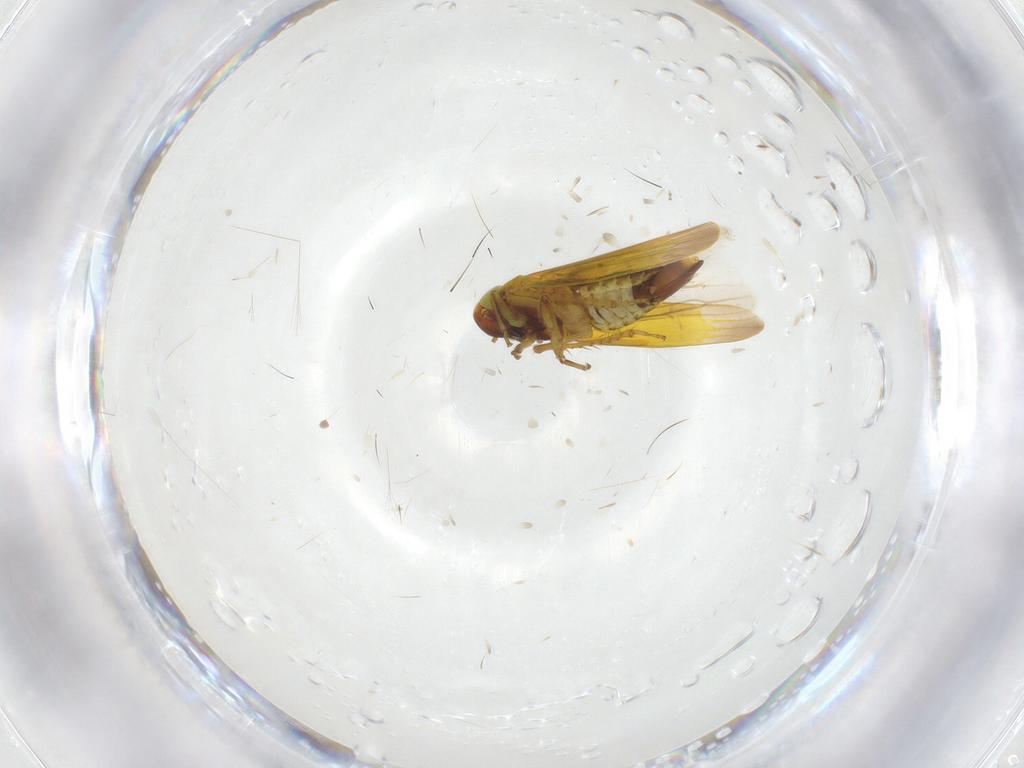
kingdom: Animalia
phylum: Arthropoda
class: Insecta
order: Hemiptera
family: Cicadellidae
